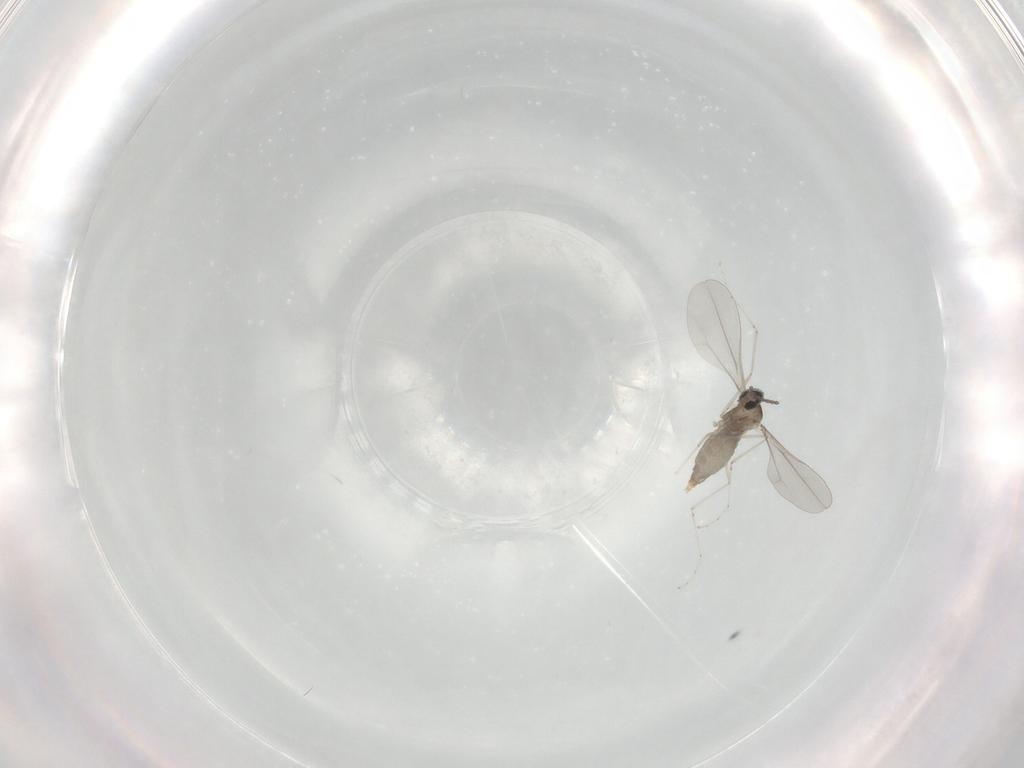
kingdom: Animalia
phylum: Arthropoda
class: Insecta
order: Diptera
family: Cecidomyiidae
